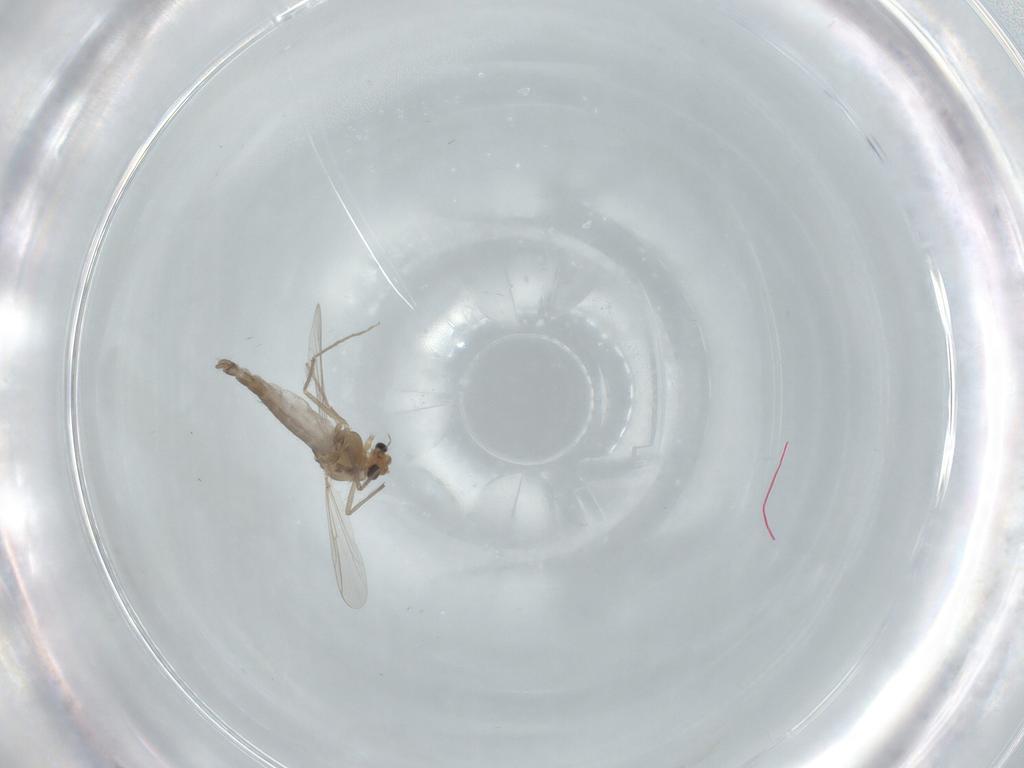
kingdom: Animalia
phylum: Arthropoda
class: Insecta
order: Diptera
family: Chironomidae
